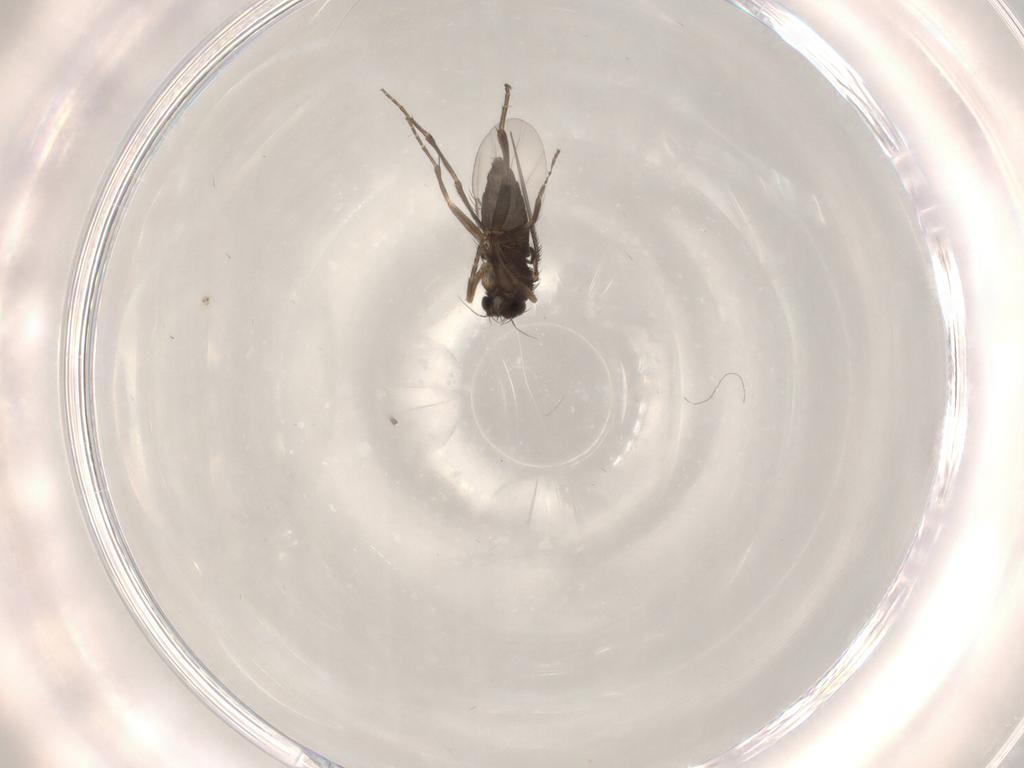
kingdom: Animalia
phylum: Arthropoda
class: Insecta
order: Diptera
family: Phoridae
